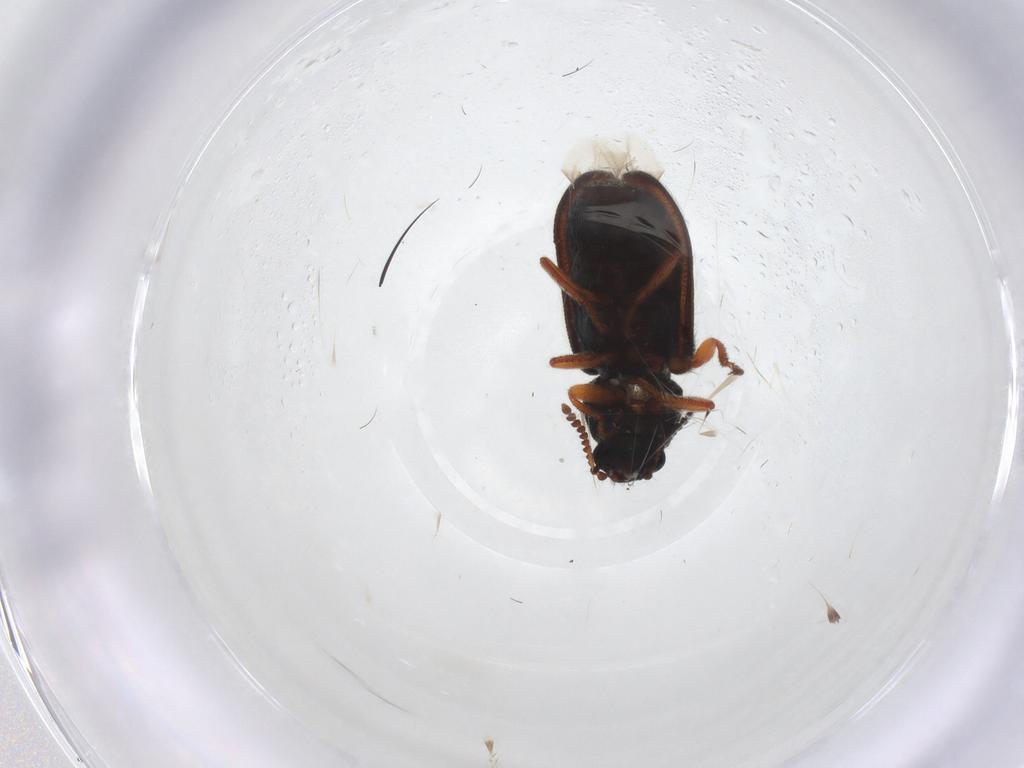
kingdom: Animalia
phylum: Arthropoda
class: Insecta
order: Coleoptera
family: Melyridae
